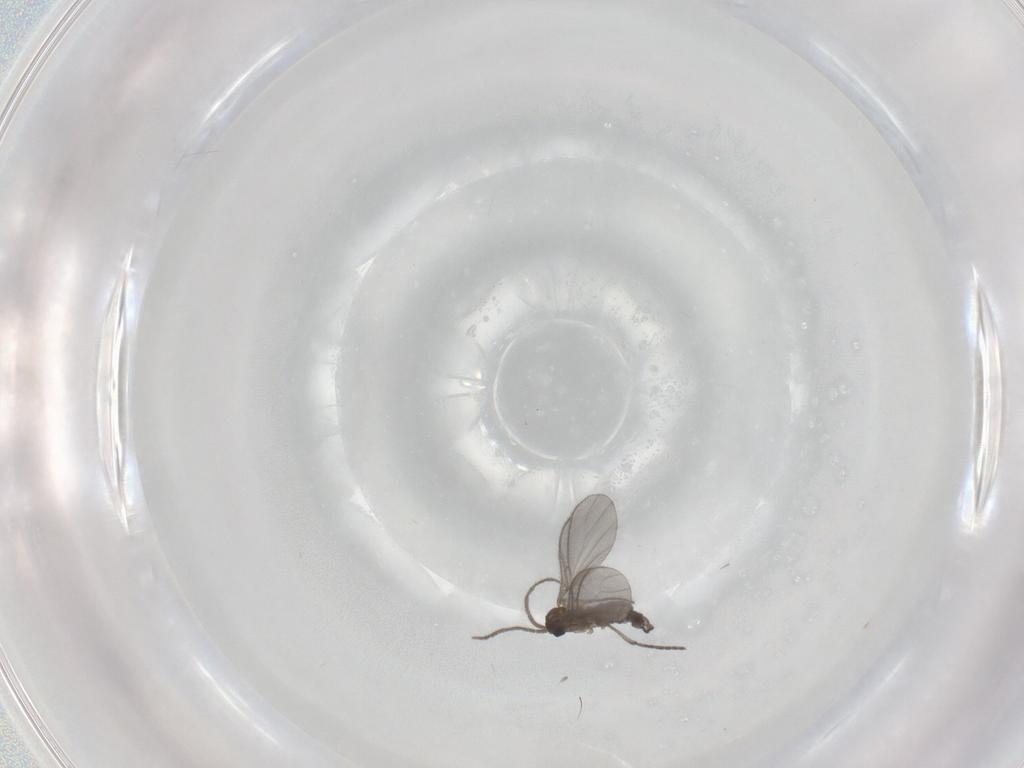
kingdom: Animalia
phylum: Arthropoda
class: Insecta
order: Diptera
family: Sciaridae
